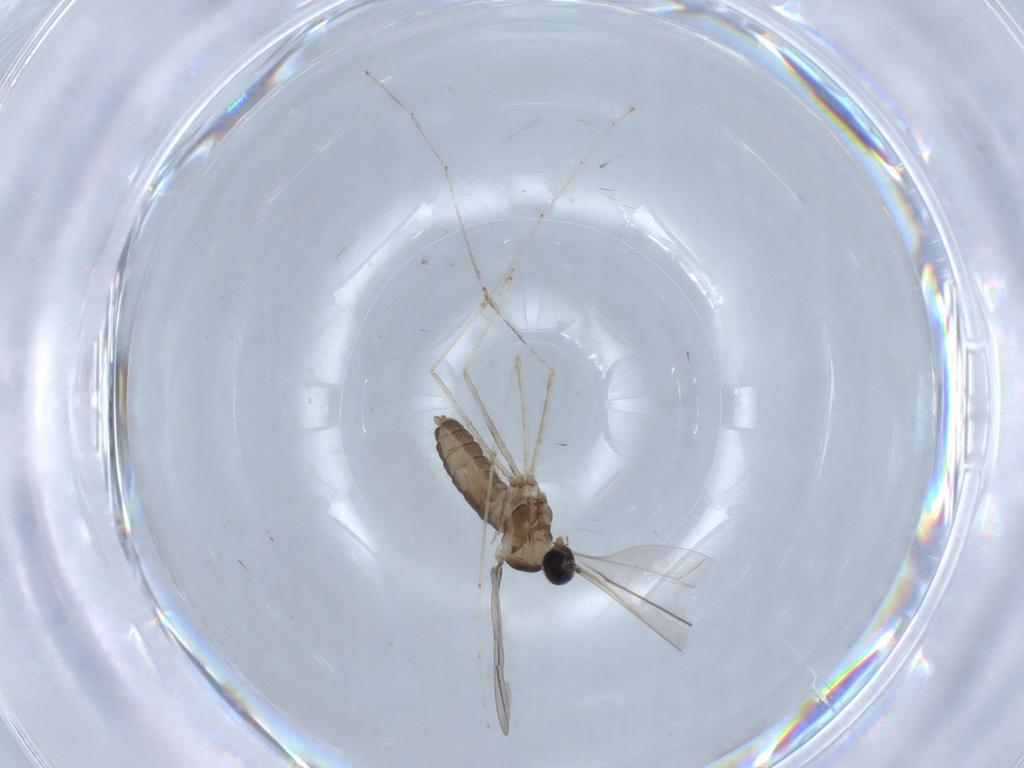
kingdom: Animalia
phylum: Arthropoda
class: Insecta
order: Diptera
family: Cecidomyiidae
